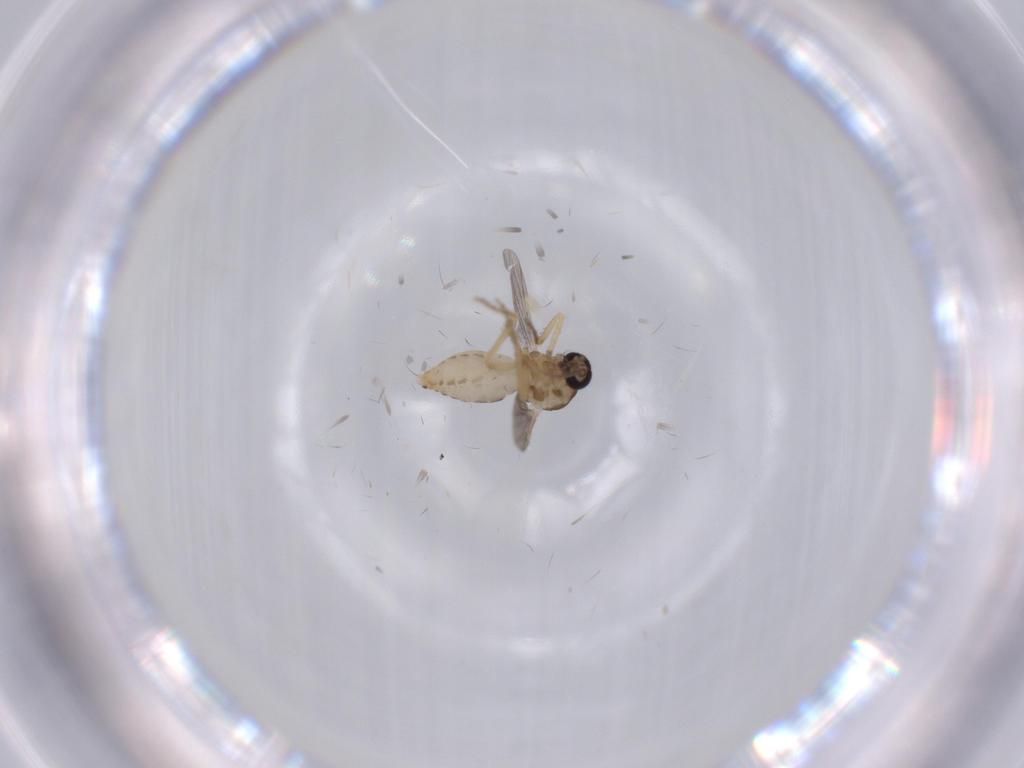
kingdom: Animalia
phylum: Arthropoda
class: Insecta
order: Diptera
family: Ceratopogonidae
